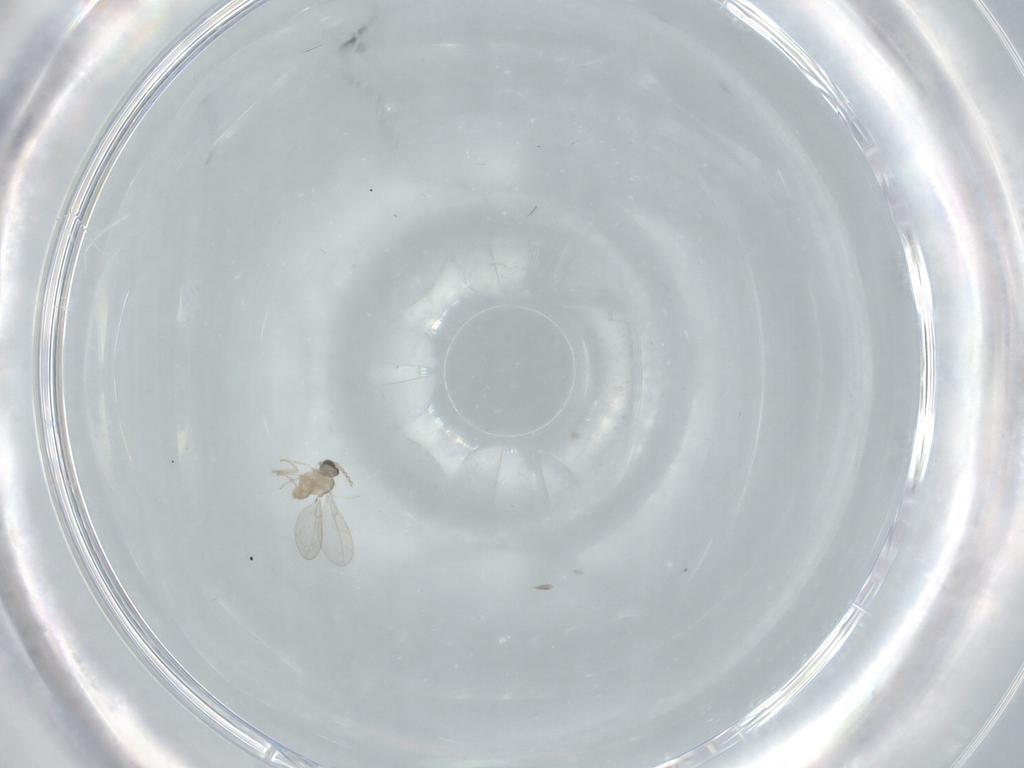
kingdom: Animalia
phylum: Arthropoda
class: Insecta
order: Diptera
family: Cecidomyiidae
